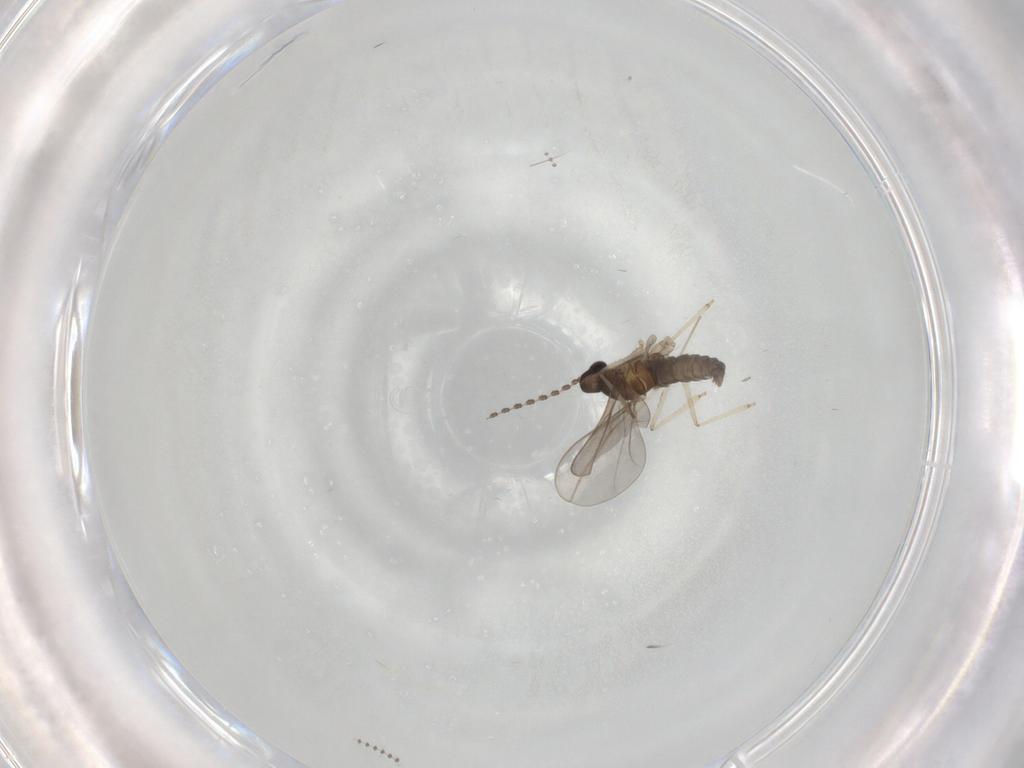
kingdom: Animalia
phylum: Arthropoda
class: Insecta
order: Diptera
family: Psychodidae
